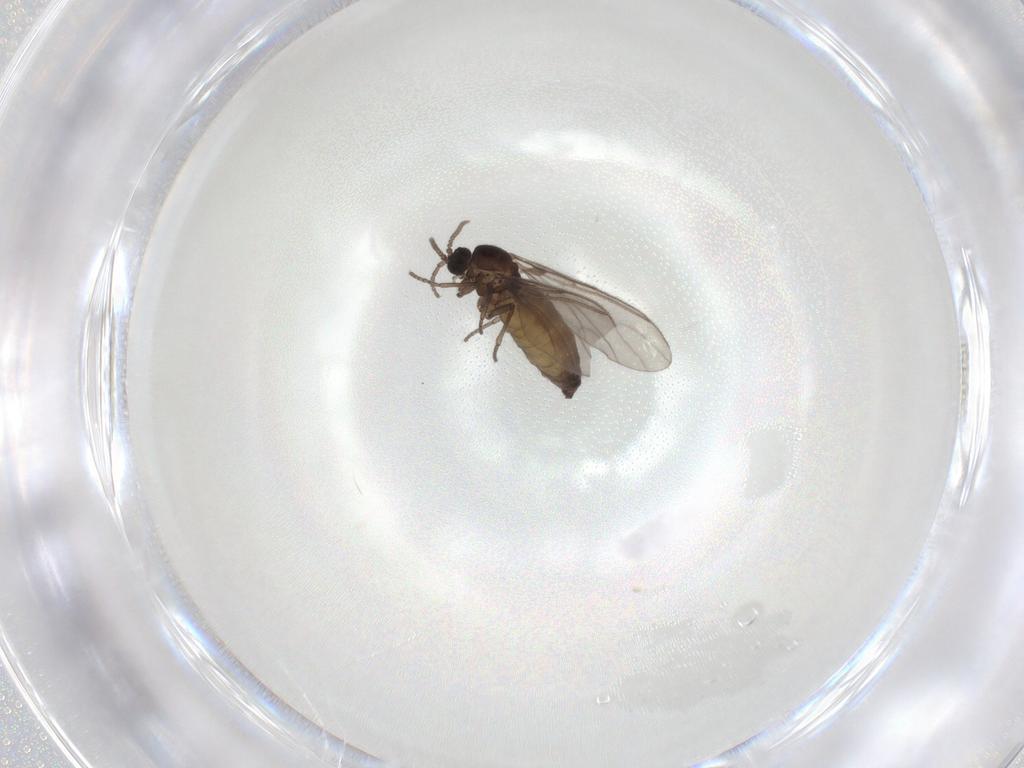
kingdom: Animalia
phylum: Arthropoda
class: Insecta
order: Diptera
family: Sciaridae
